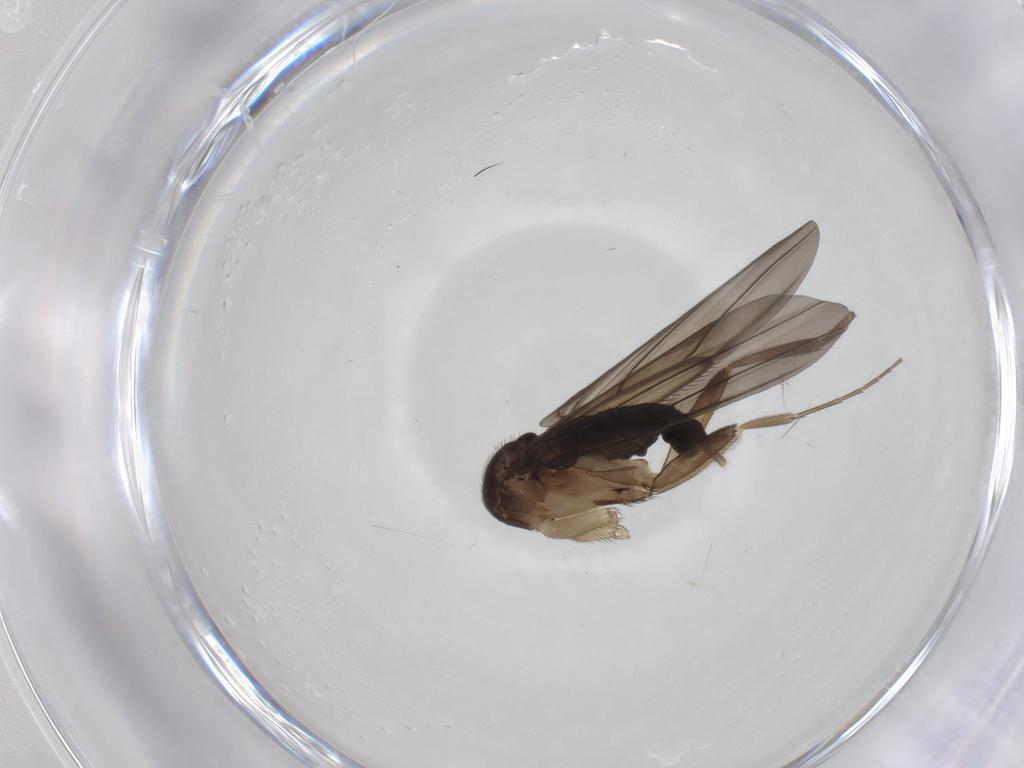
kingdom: Animalia
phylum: Arthropoda
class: Insecta
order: Diptera
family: Phoridae
